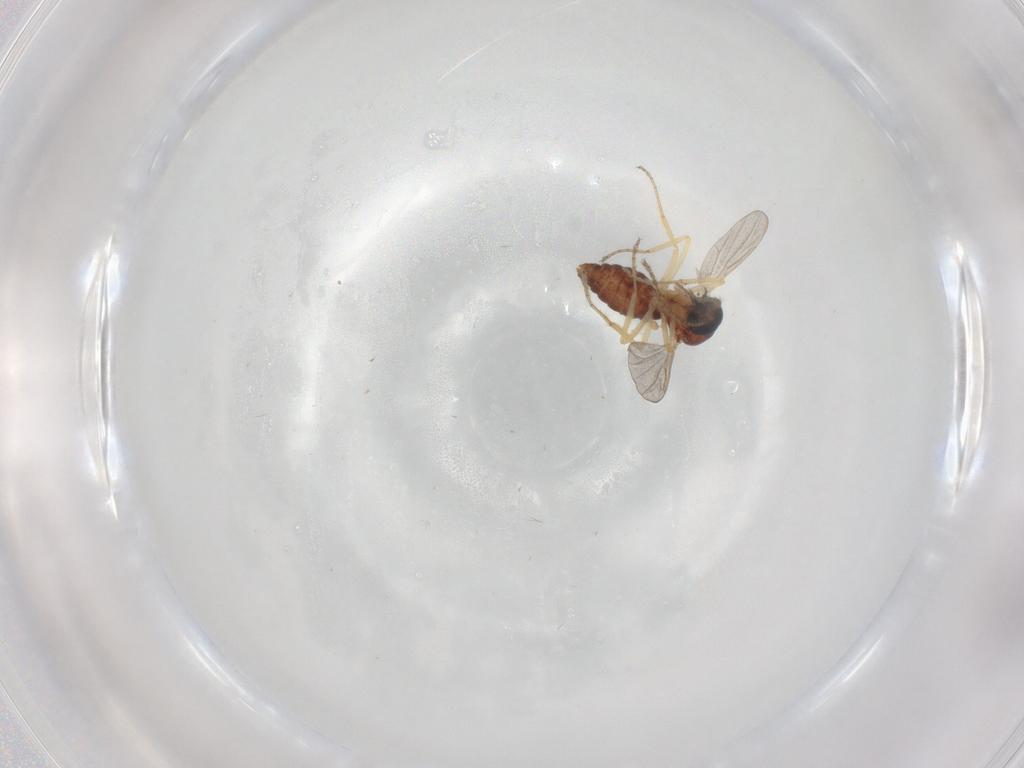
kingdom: Animalia
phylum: Arthropoda
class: Insecta
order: Diptera
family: Ceratopogonidae
